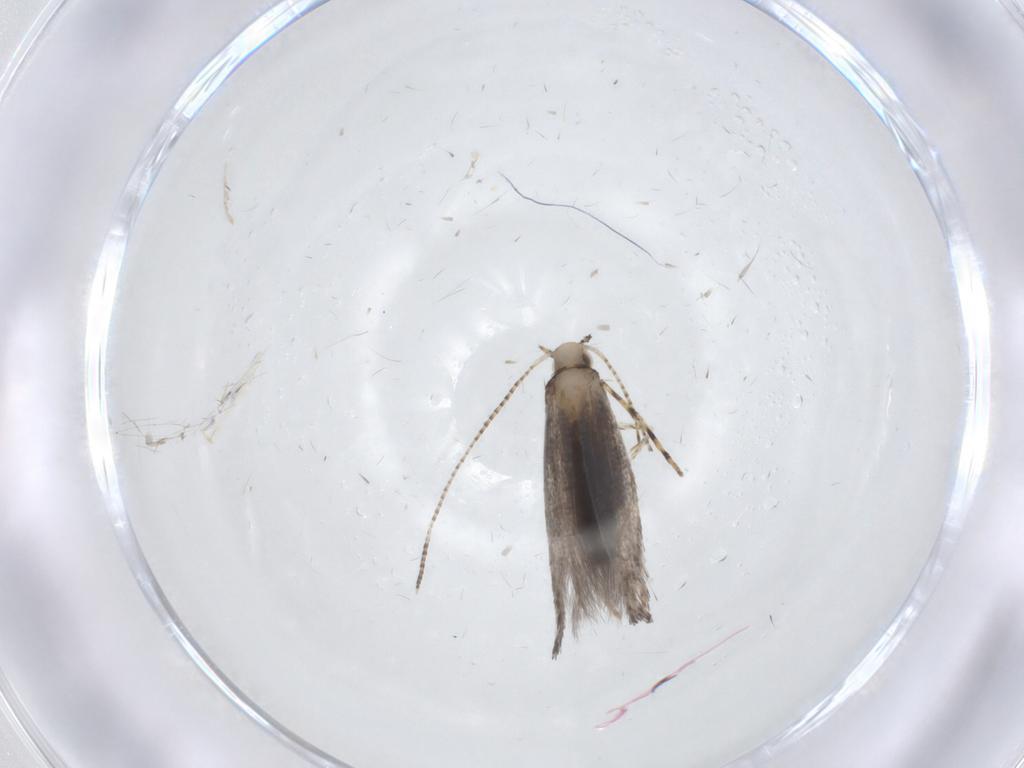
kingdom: Animalia
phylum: Arthropoda
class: Insecta
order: Lepidoptera
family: Gracillariidae
